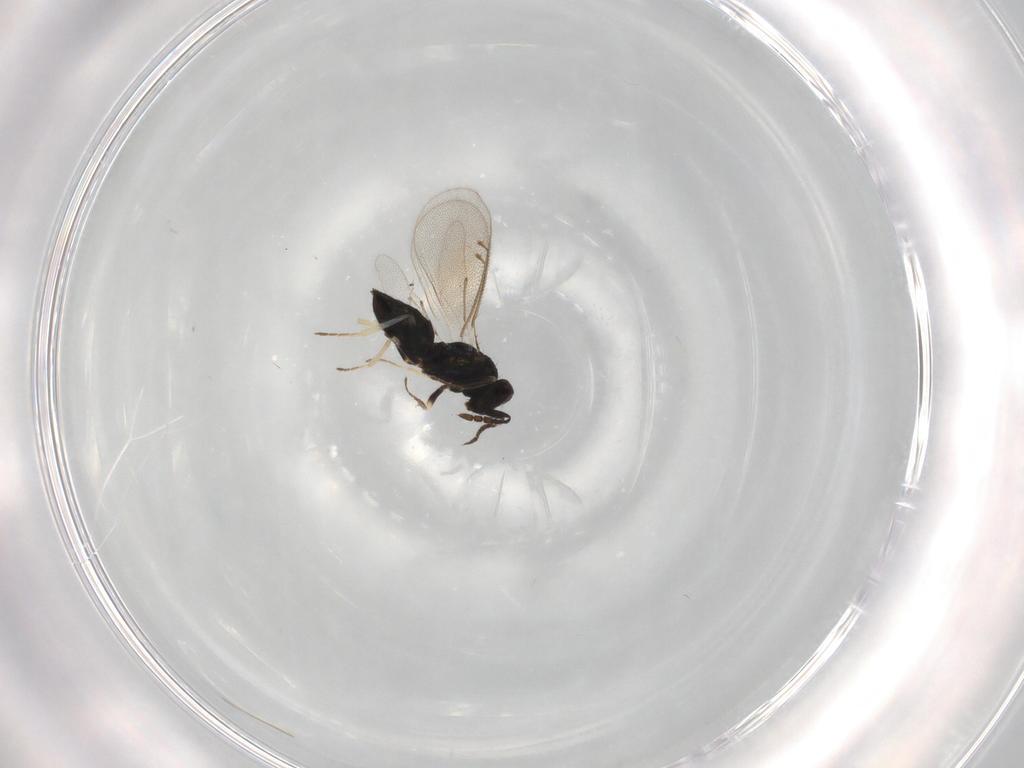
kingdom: Animalia
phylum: Arthropoda
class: Insecta
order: Hymenoptera
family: Eulophidae
